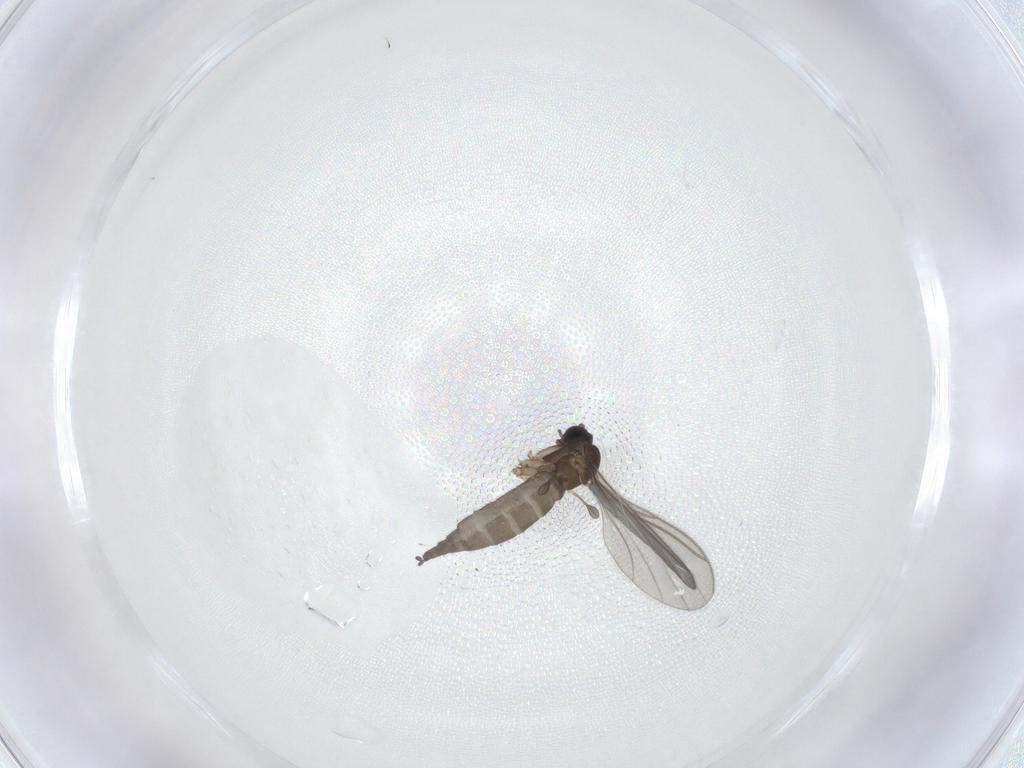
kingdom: Animalia
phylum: Arthropoda
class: Insecta
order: Diptera
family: Sciaridae
